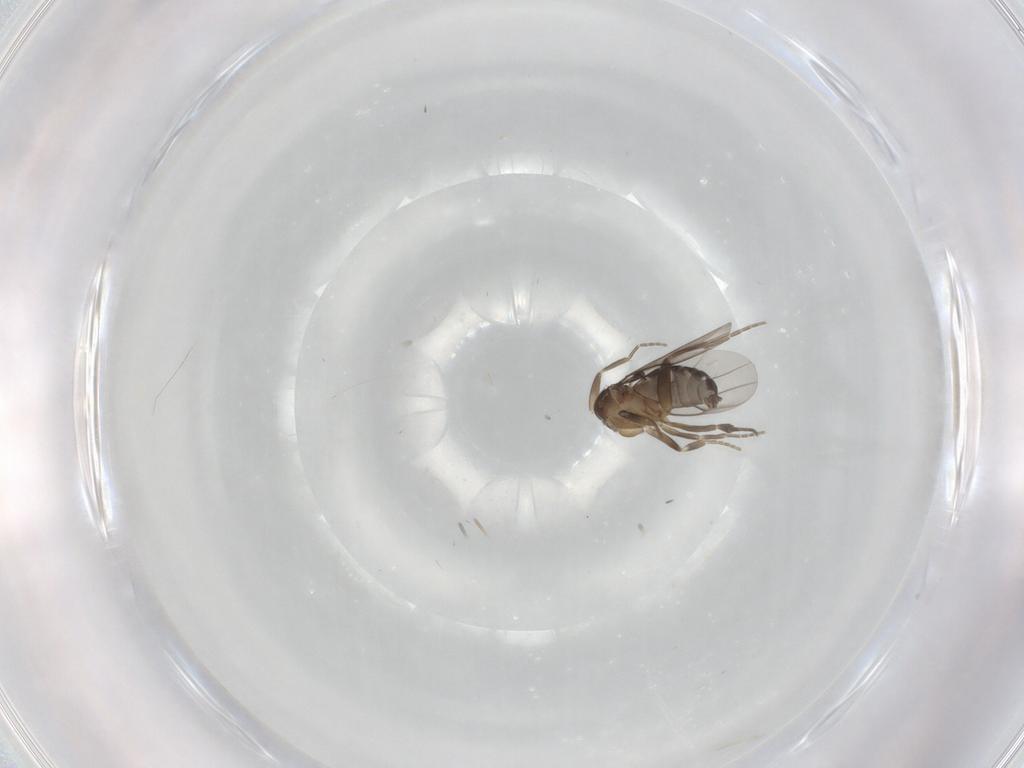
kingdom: Animalia
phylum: Arthropoda
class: Insecta
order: Diptera
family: Phoridae
